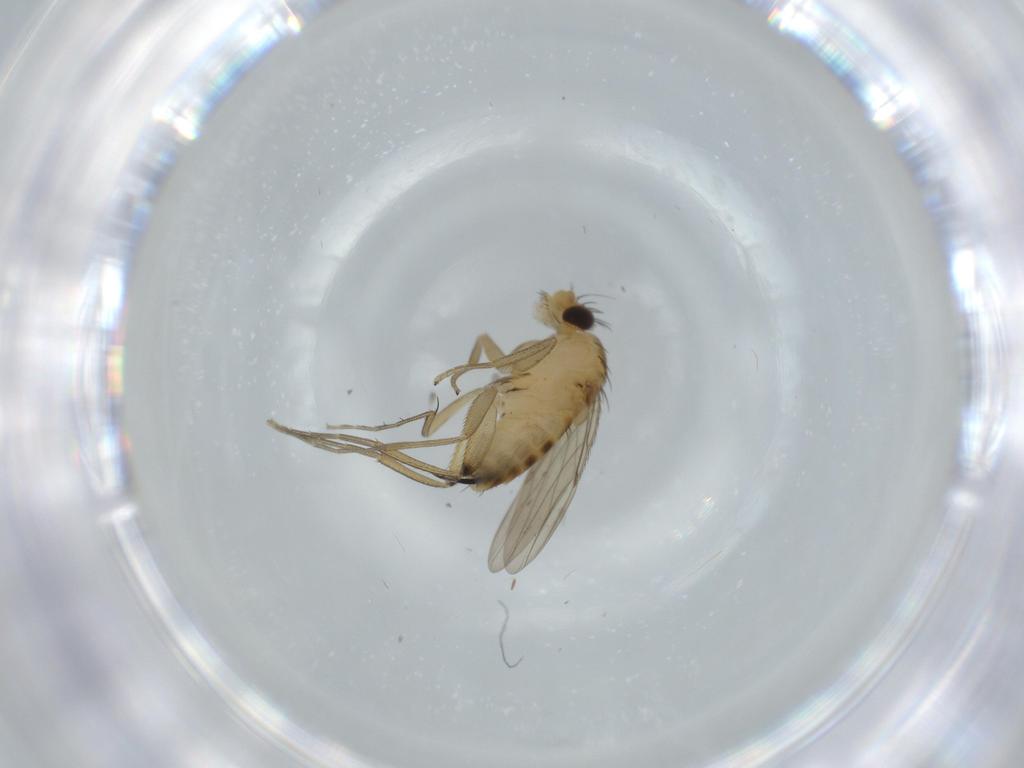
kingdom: Animalia
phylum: Arthropoda
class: Insecta
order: Diptera
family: Phoridae
